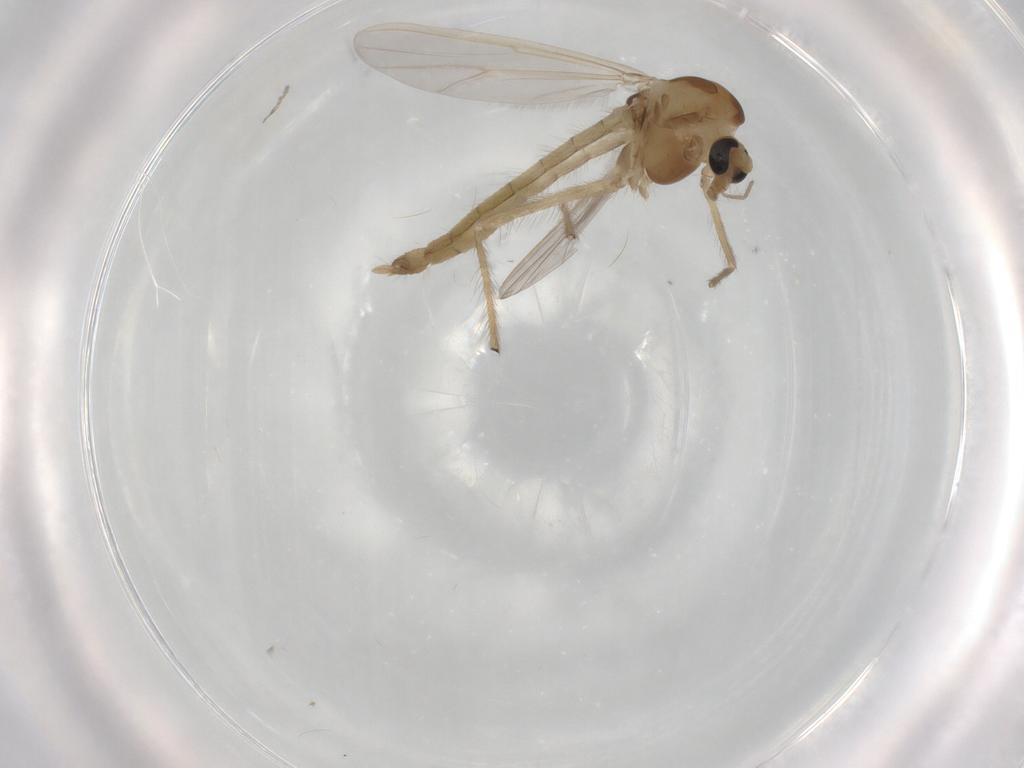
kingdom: Animalia
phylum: Arthropoda
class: Insecta
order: Diptera
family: Chironomidae
